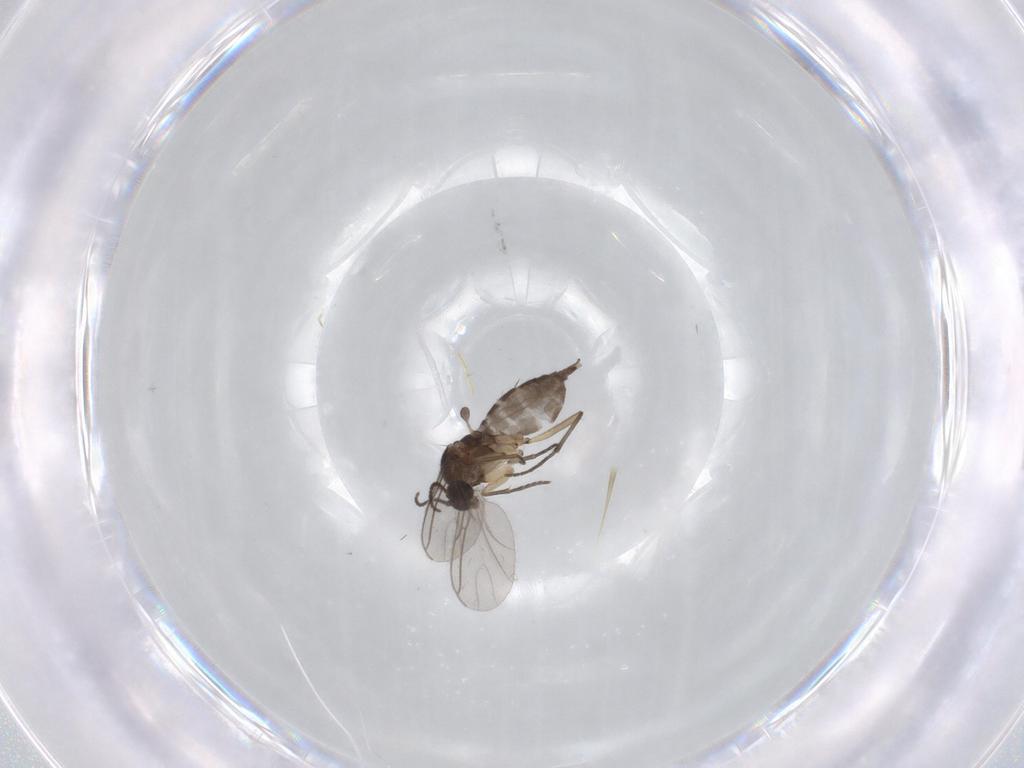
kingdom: Animalia
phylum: Arthropoda
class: Insecta
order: Diptera
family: Sciaridae
